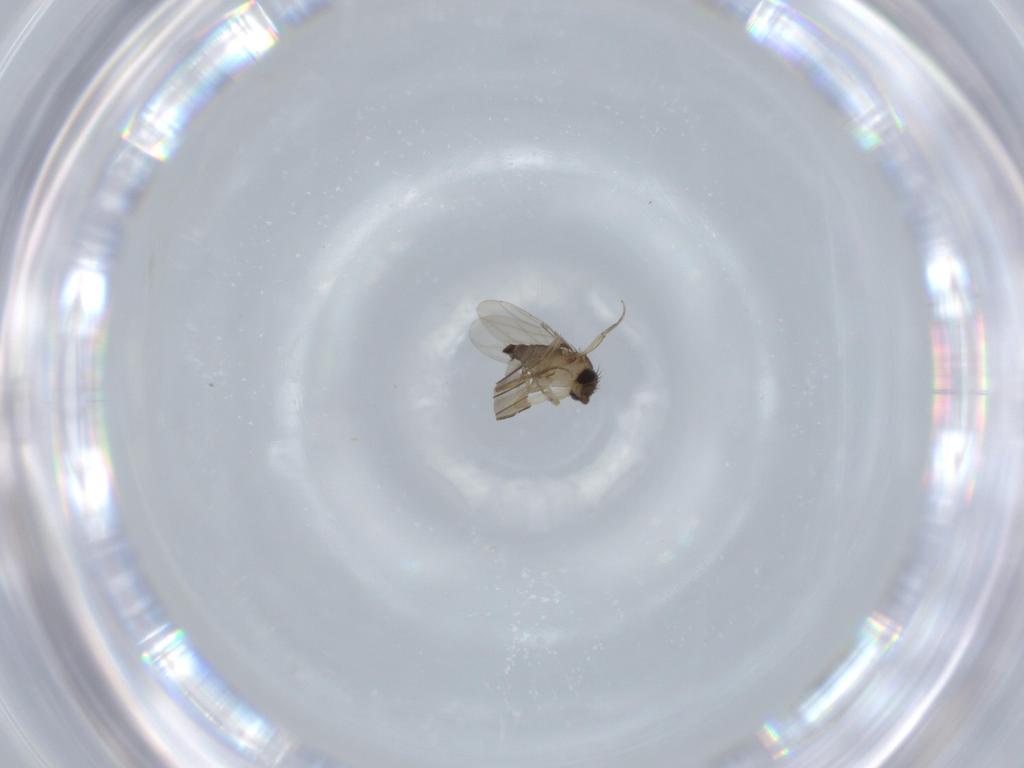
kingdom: Animalia
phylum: Arthropoda
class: Insecta
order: Diptera
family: Phoridae
